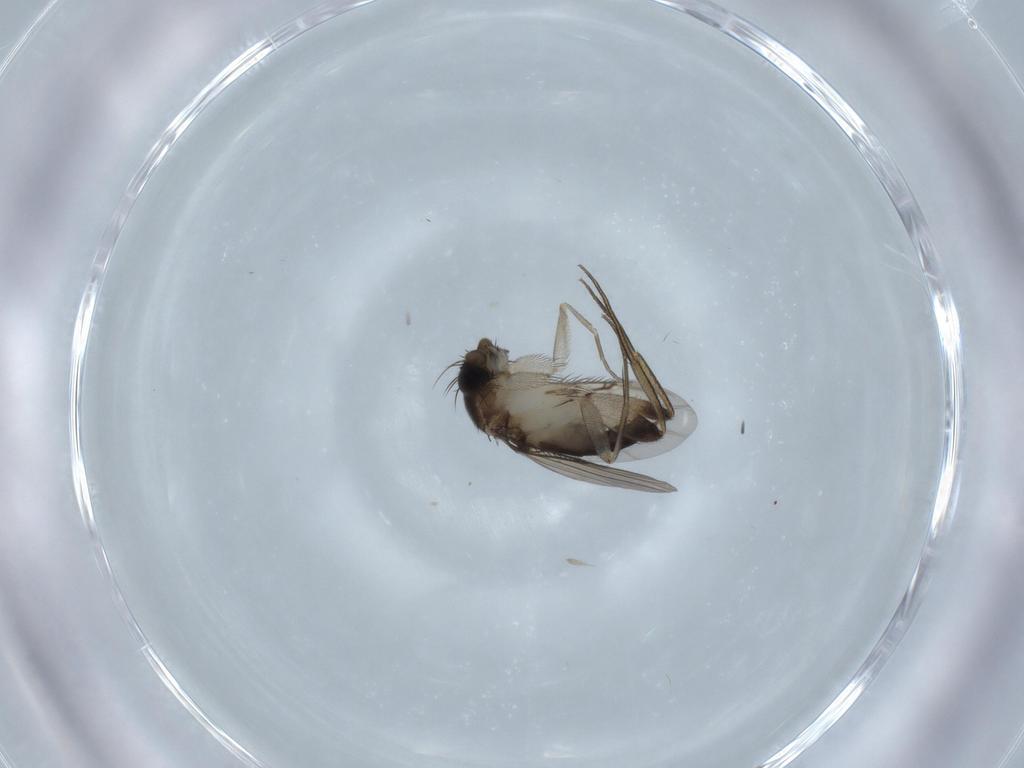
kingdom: Animalia
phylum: Arthropoda
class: Insecta
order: Diptera
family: Phoridae
